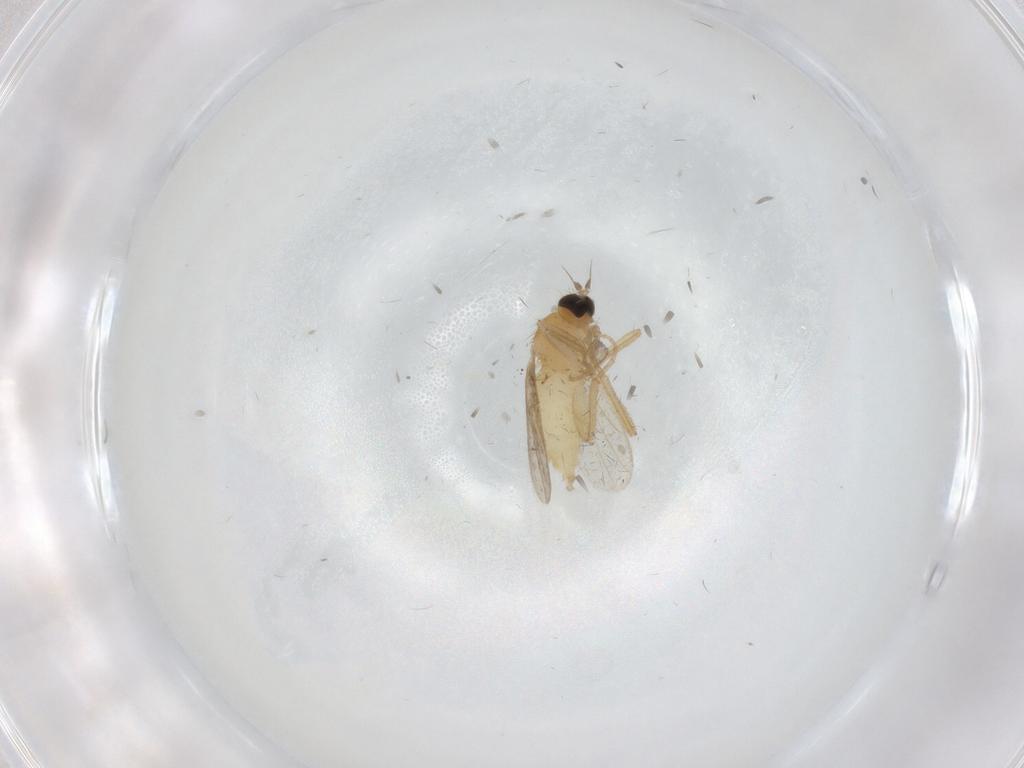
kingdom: Animalia
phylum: Arthropoda
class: Insecta
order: Diptera
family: Hybotidae
